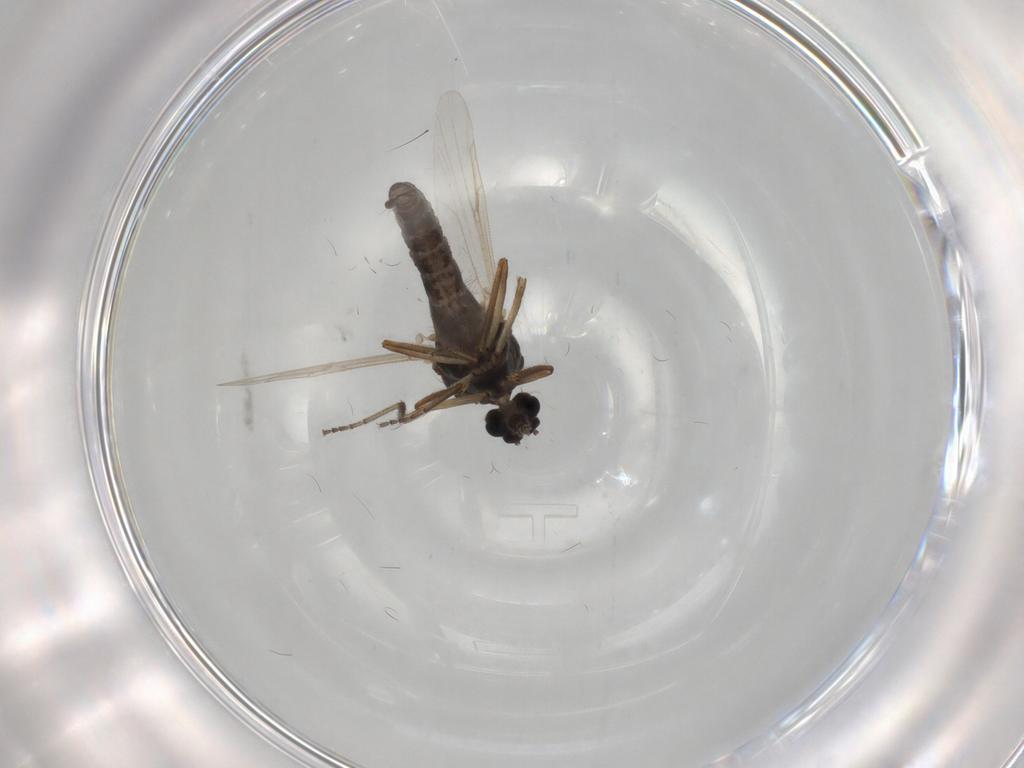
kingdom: Animalia
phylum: Arthropoda
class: Insecta
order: Diptera
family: Ceratopogonidae
